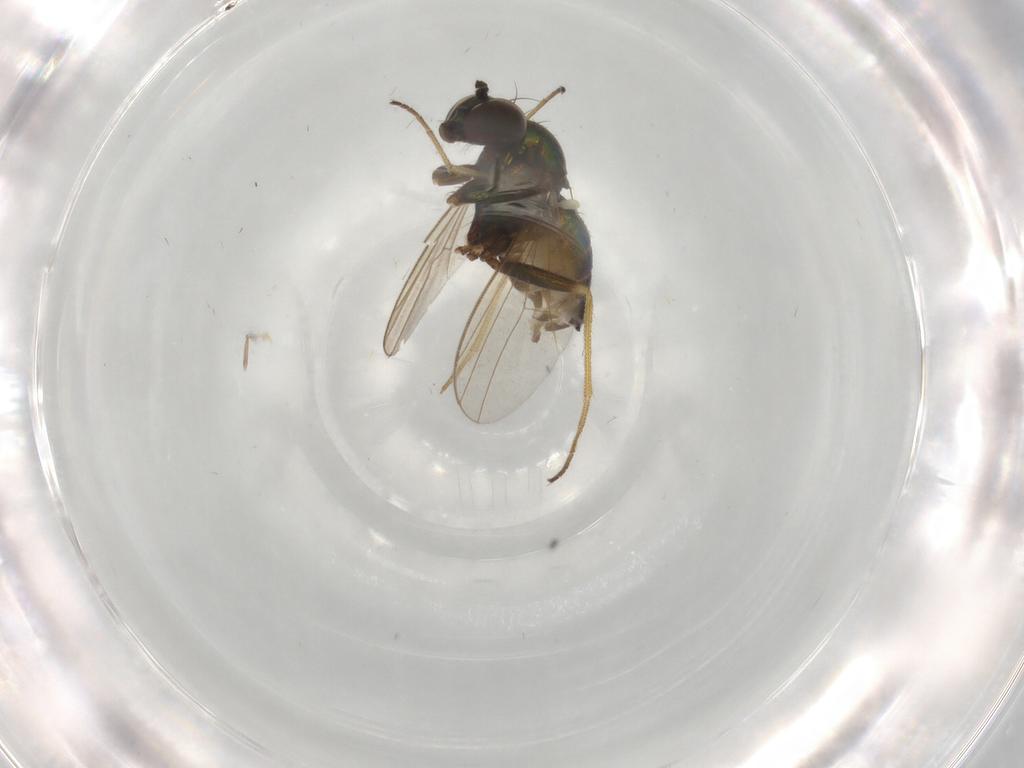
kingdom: Animalia
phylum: Arthropoda
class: Insecta
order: Diptera
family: Dolichopodidae
